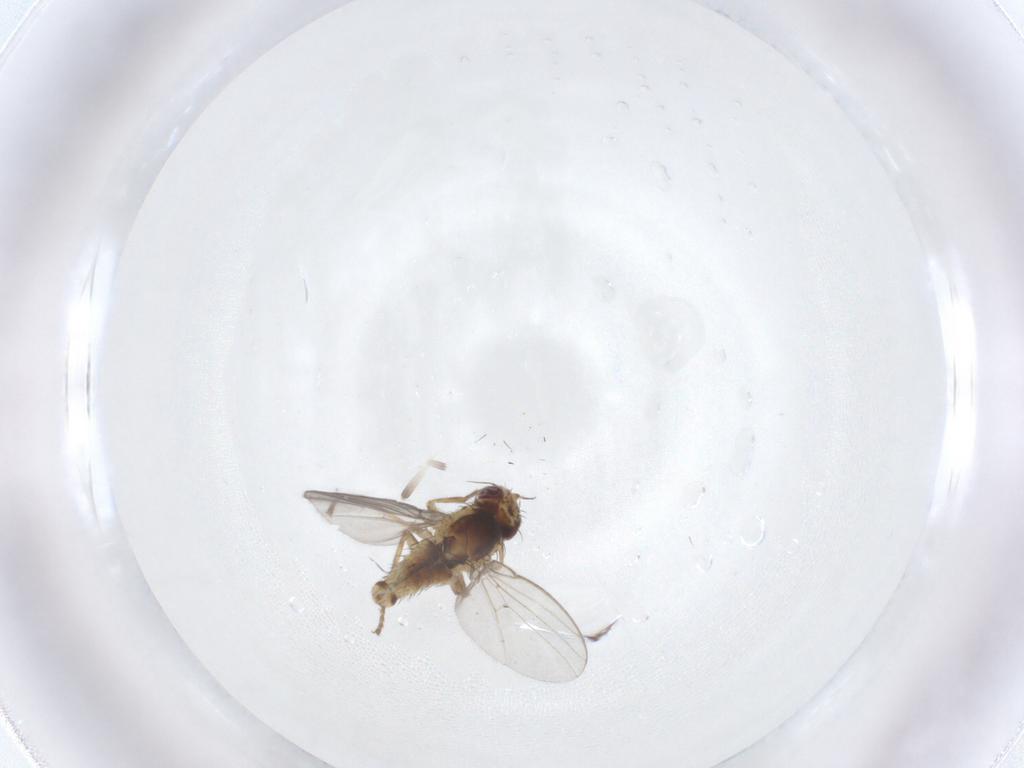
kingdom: Animalia
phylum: Arthropoda
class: Insecta
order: Diptera
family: Agromyzidae
